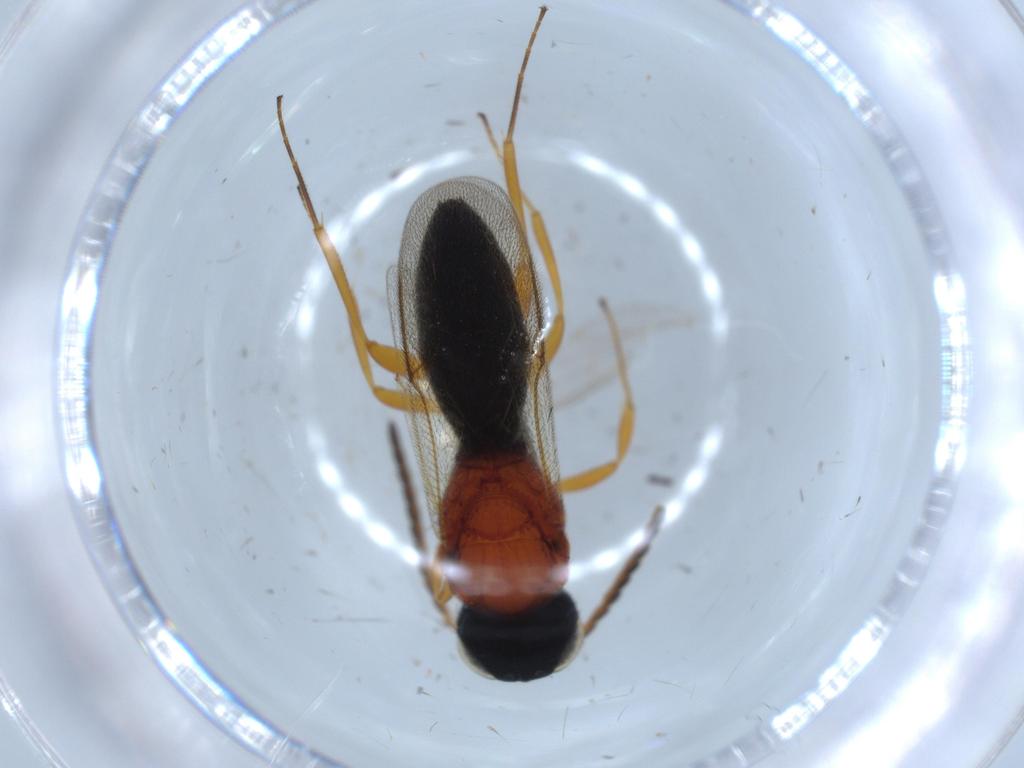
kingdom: Animalia
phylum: Arthropoda
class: Insecta
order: Hymenoptera
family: Scelionidae
